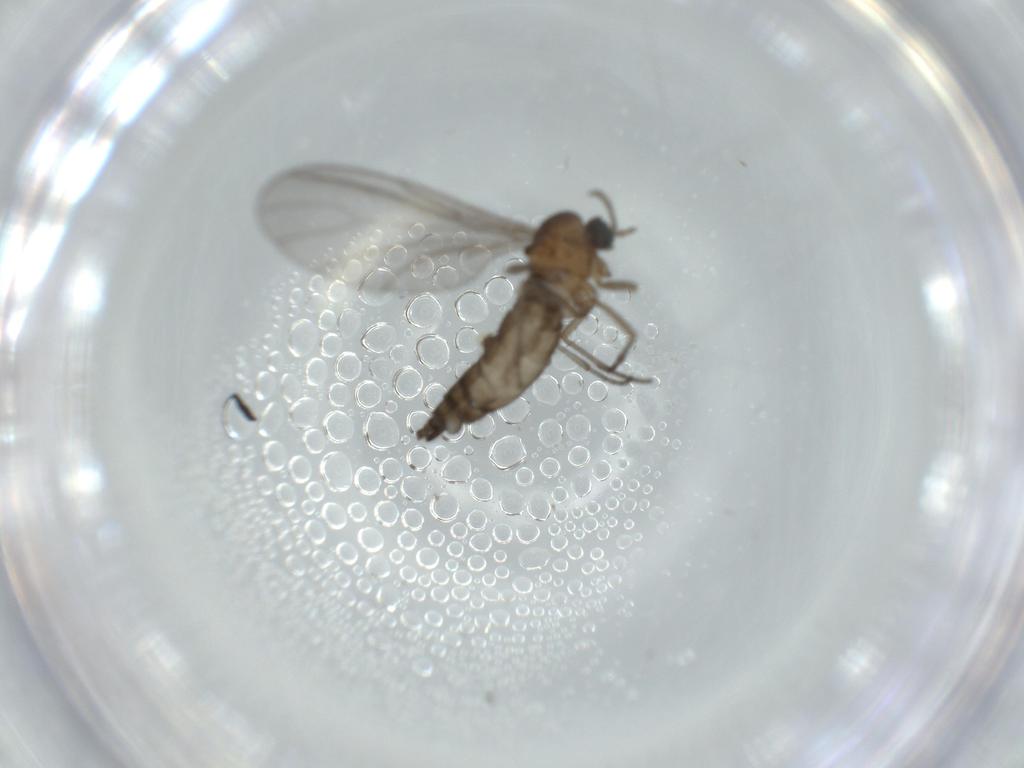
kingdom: Animalia
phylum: Arthropoda
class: Insecta
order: Diptera
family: Sciaridae
